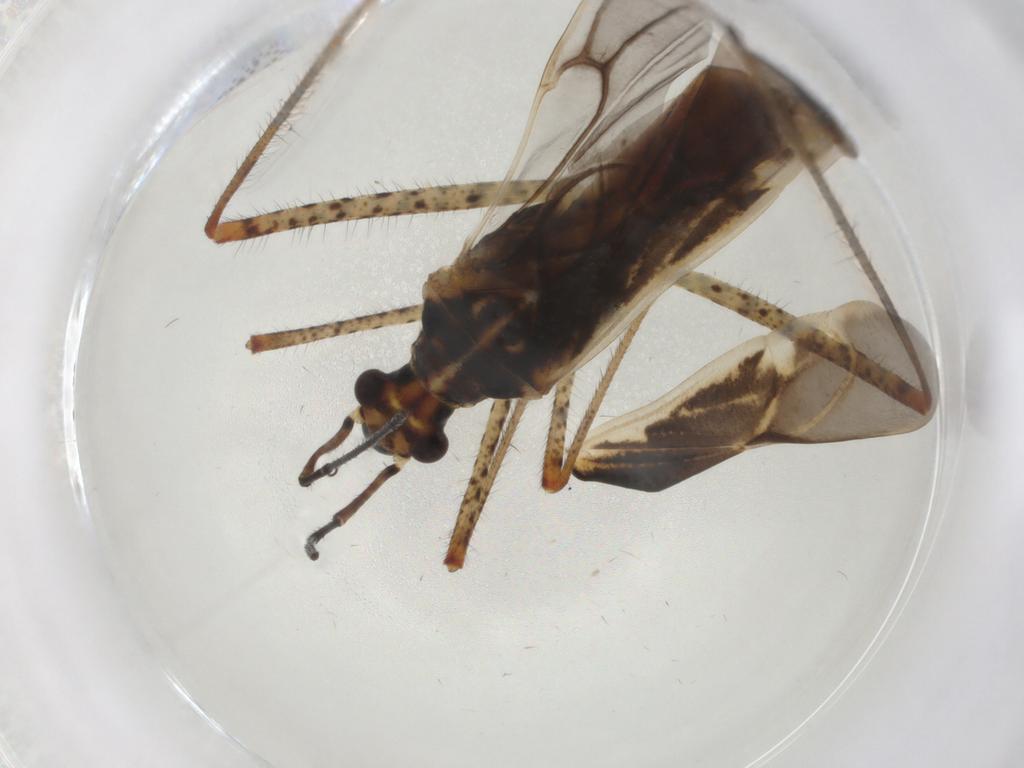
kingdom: Animalia
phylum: Arthropoda
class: Insecta
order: Hemiptera
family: Miridae
